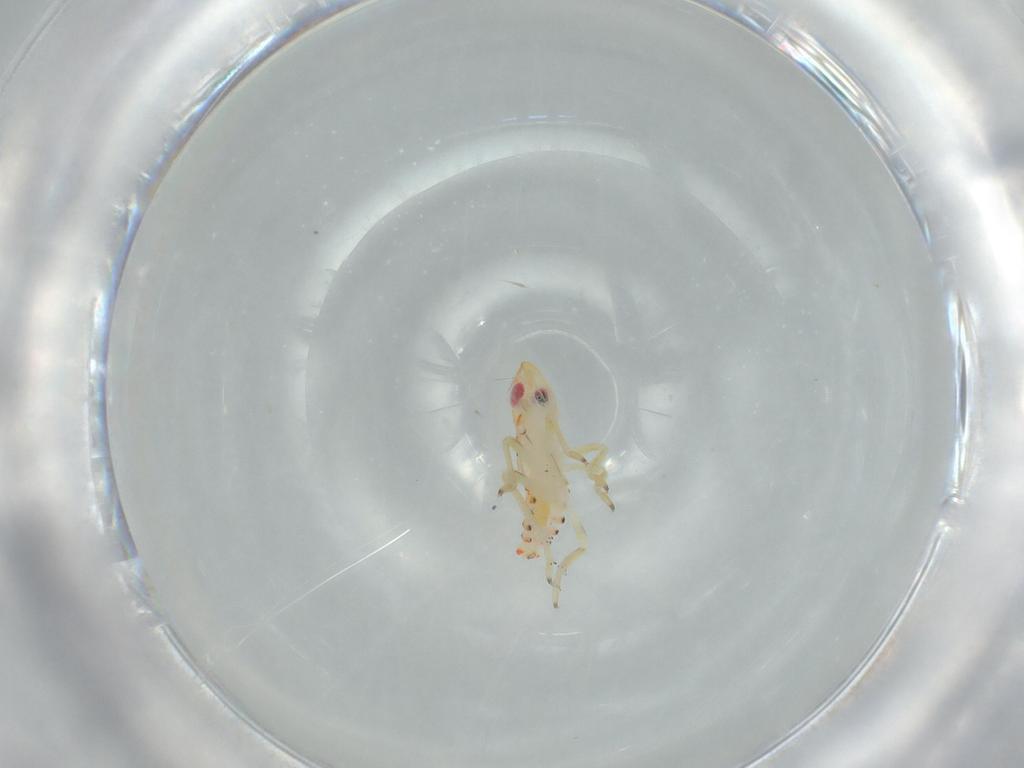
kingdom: Animalia
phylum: Arthropoda
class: Insecta
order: Hemiptera
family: Tropiduchidae
